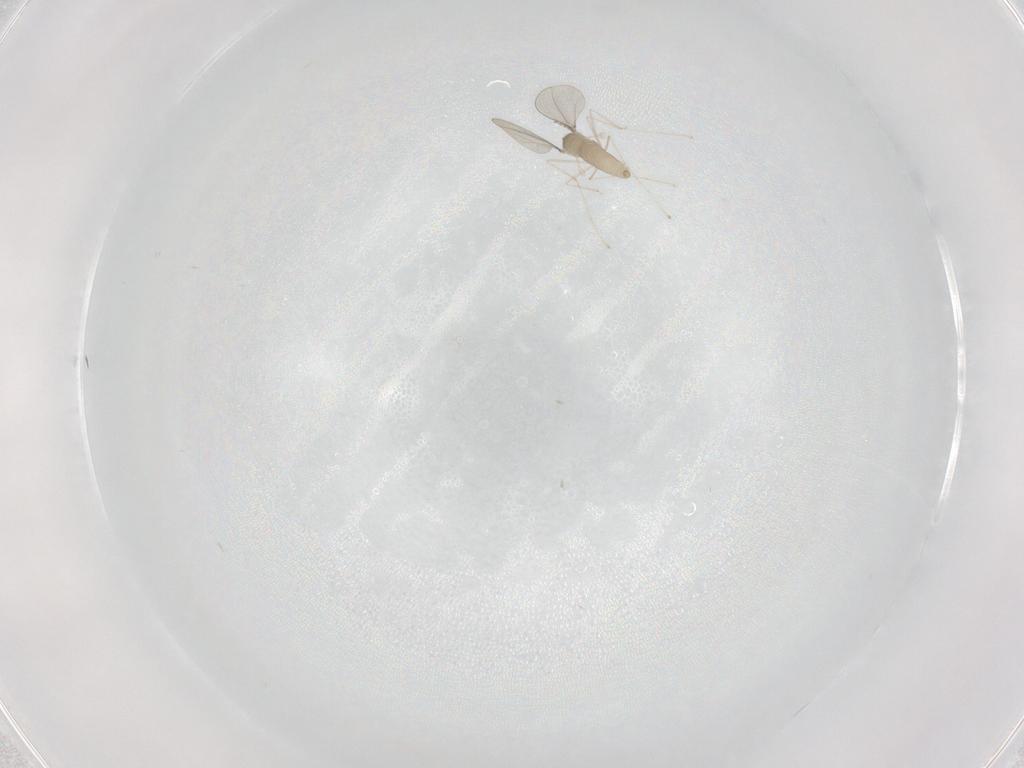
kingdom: Animalia
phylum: Arthropoda
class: Insecta
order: Diptera
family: Cecidomyiidae
